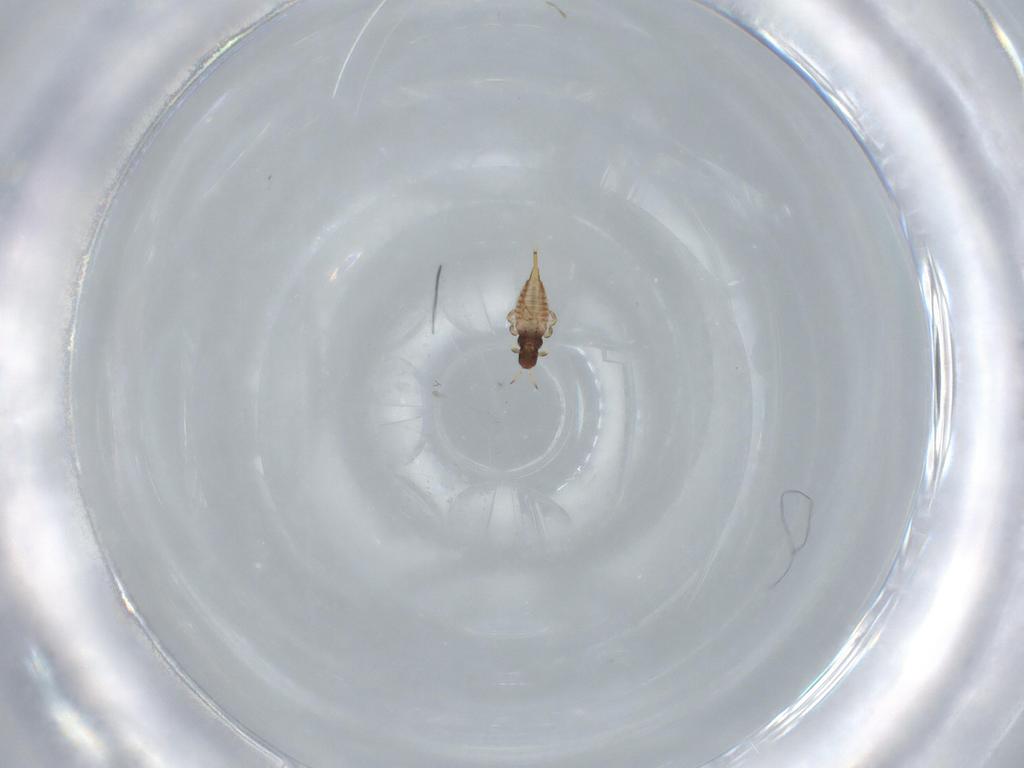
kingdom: Animalia
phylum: Arthropoda
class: Insecta
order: Thysanoptera
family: Phlaeothripidae
